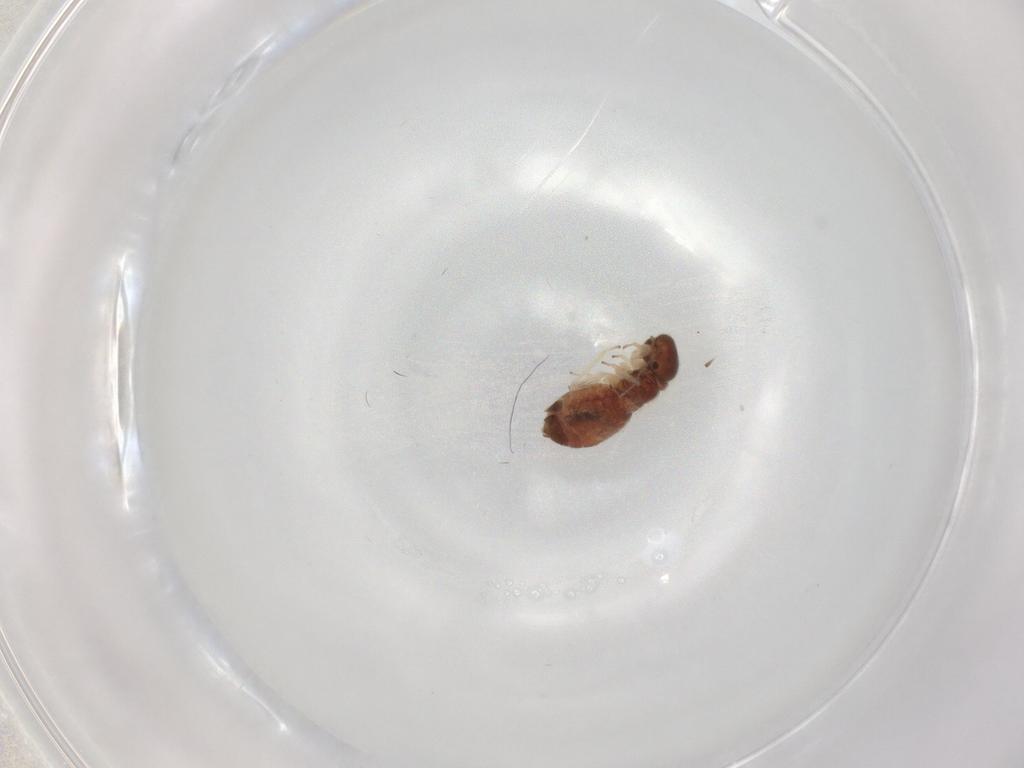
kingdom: Animalia
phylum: Arthropoda
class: Insecta
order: Psocodea
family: Archipsocidae
